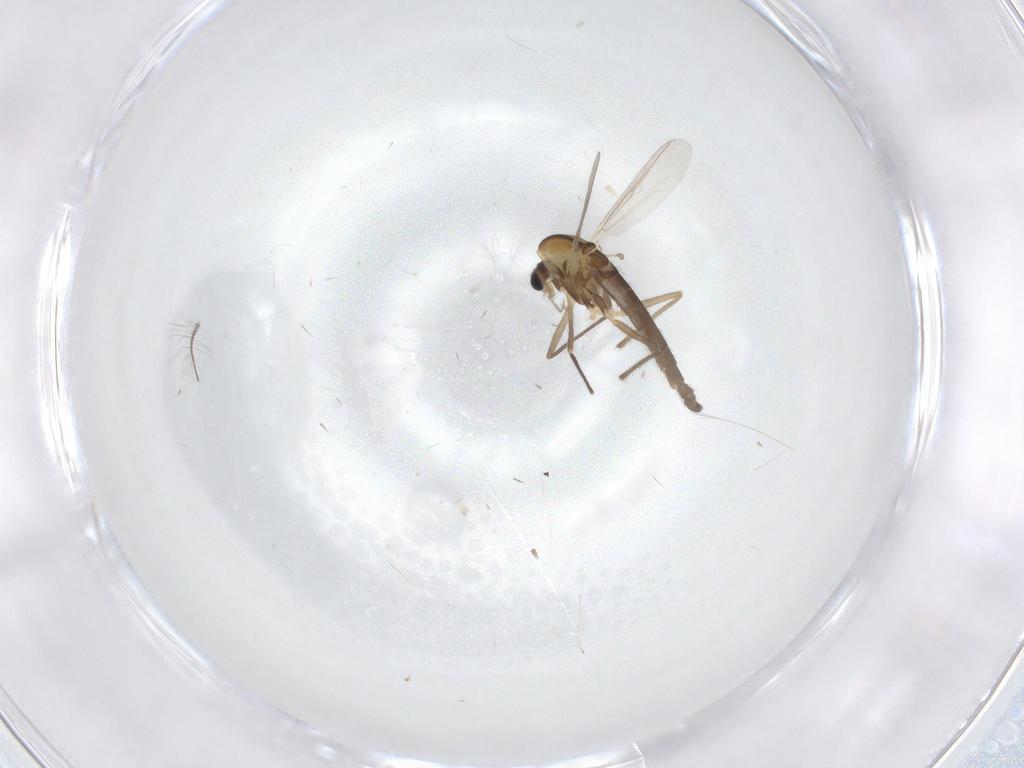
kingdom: Animalia
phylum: Arthropoda
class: Insecta
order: Diptera
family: Chironomidae
